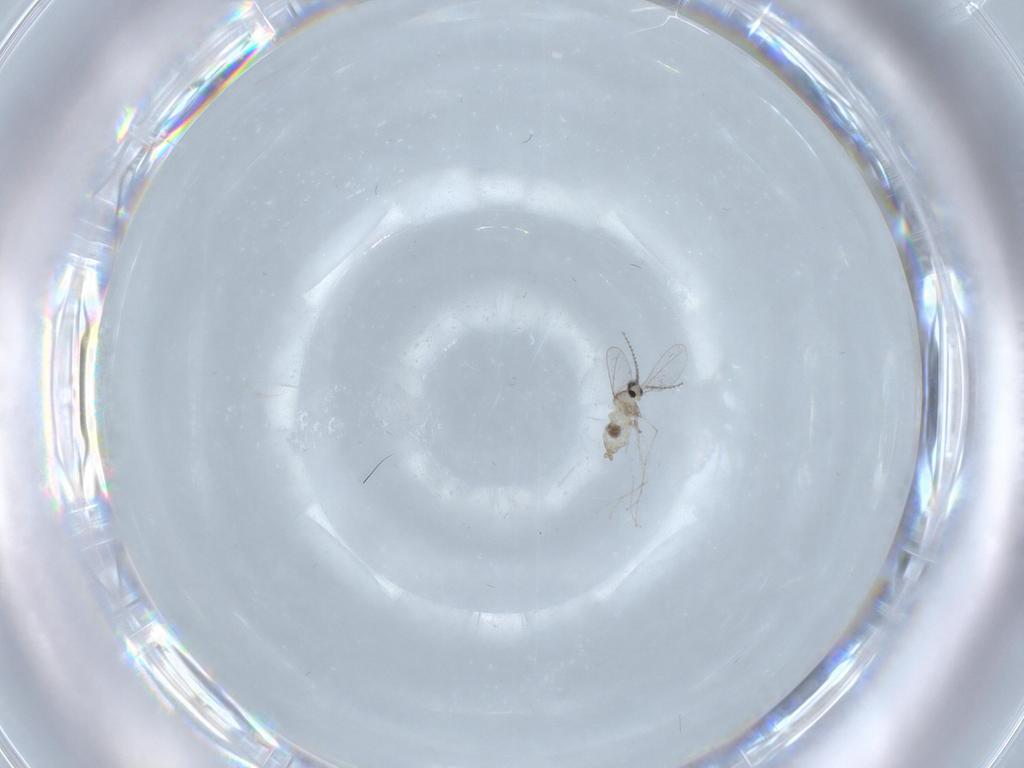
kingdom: Animalia
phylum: Arthropoda
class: Insecta
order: Diptera
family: Cecidomyiidae
